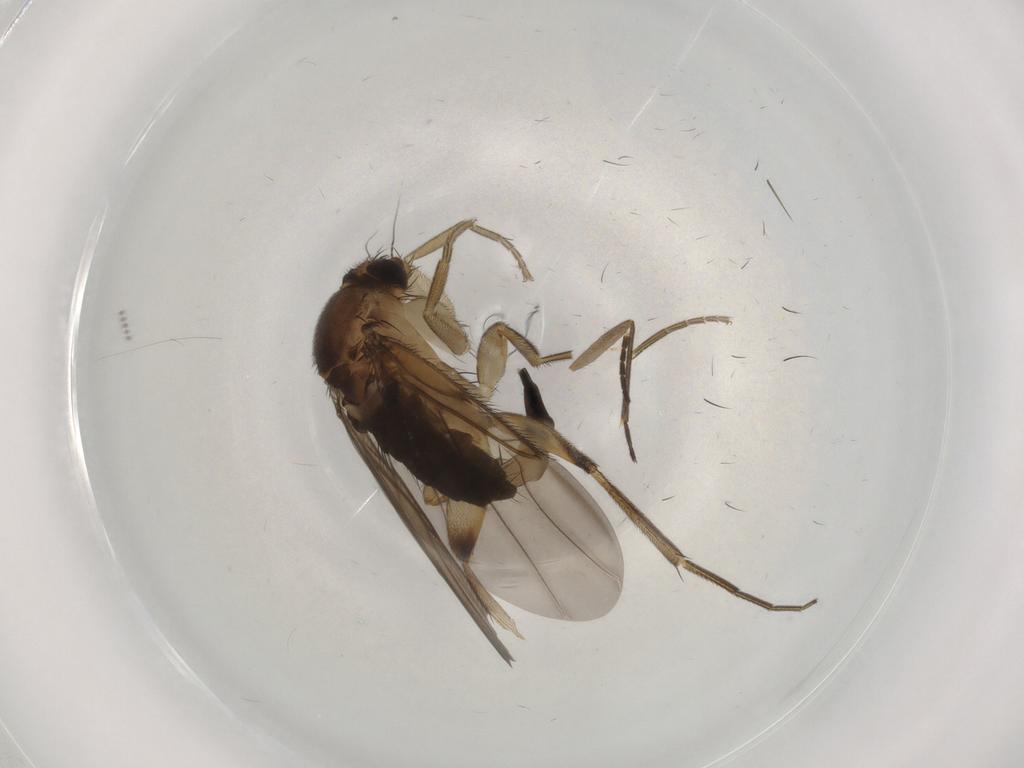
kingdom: Animalia
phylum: Arthropoda
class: Insecta
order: Diptera
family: Phoridae
